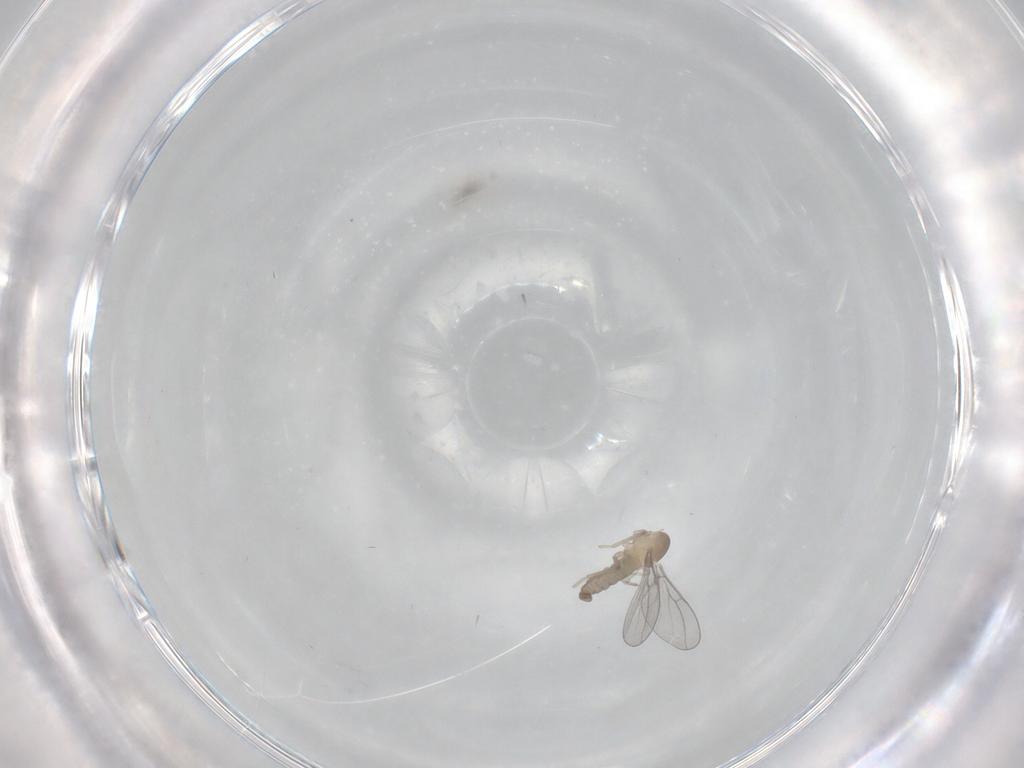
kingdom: Animalia
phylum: Arthropoda
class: Insecta
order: Diptera
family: Cecidomyiidae
